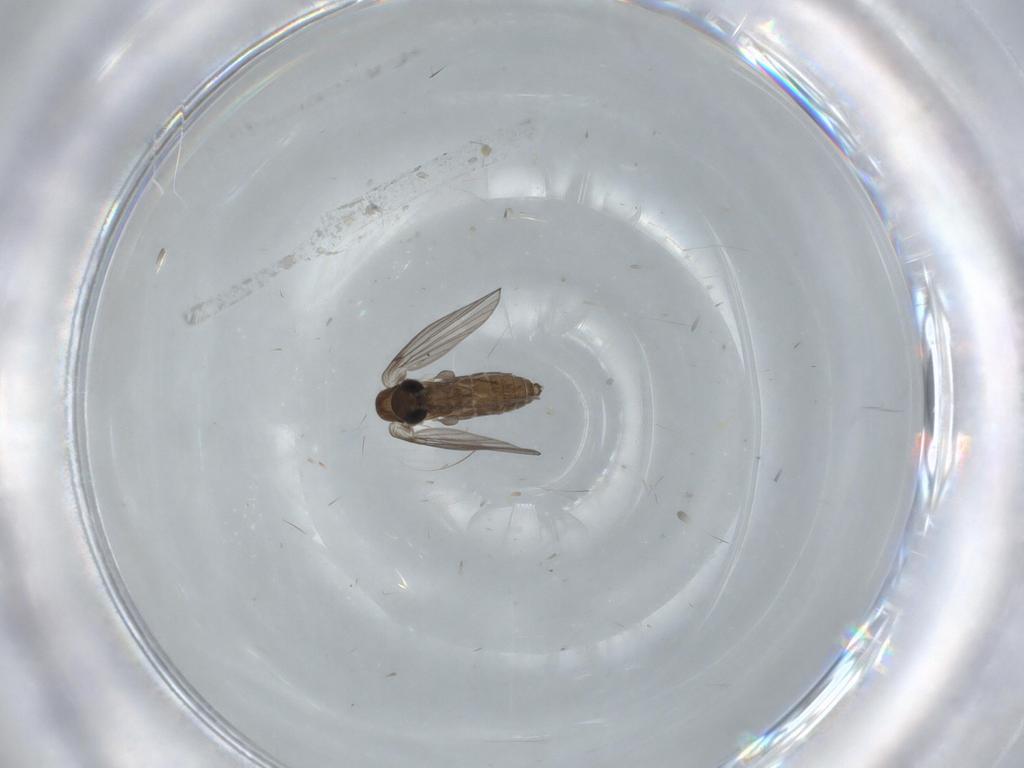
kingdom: Animalia
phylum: Arthropoda
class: Insecta
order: Diptera
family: Psychodidae
